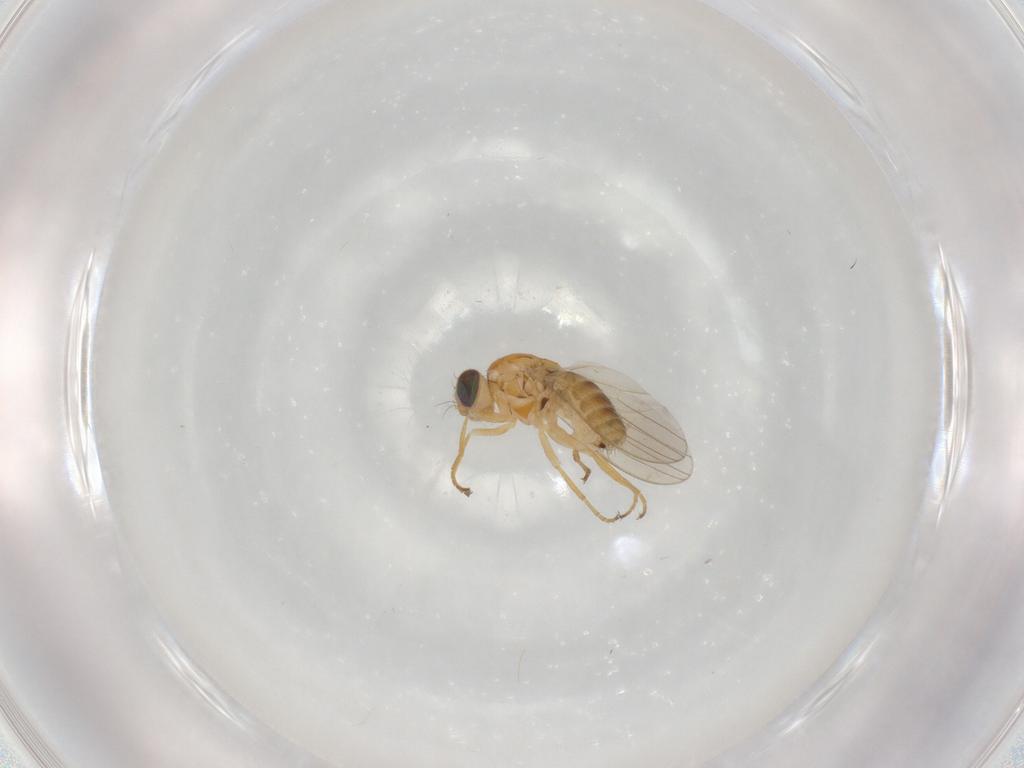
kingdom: Animalia
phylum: Arthropoda
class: Insecta
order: Diptera
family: Chyromyidae
